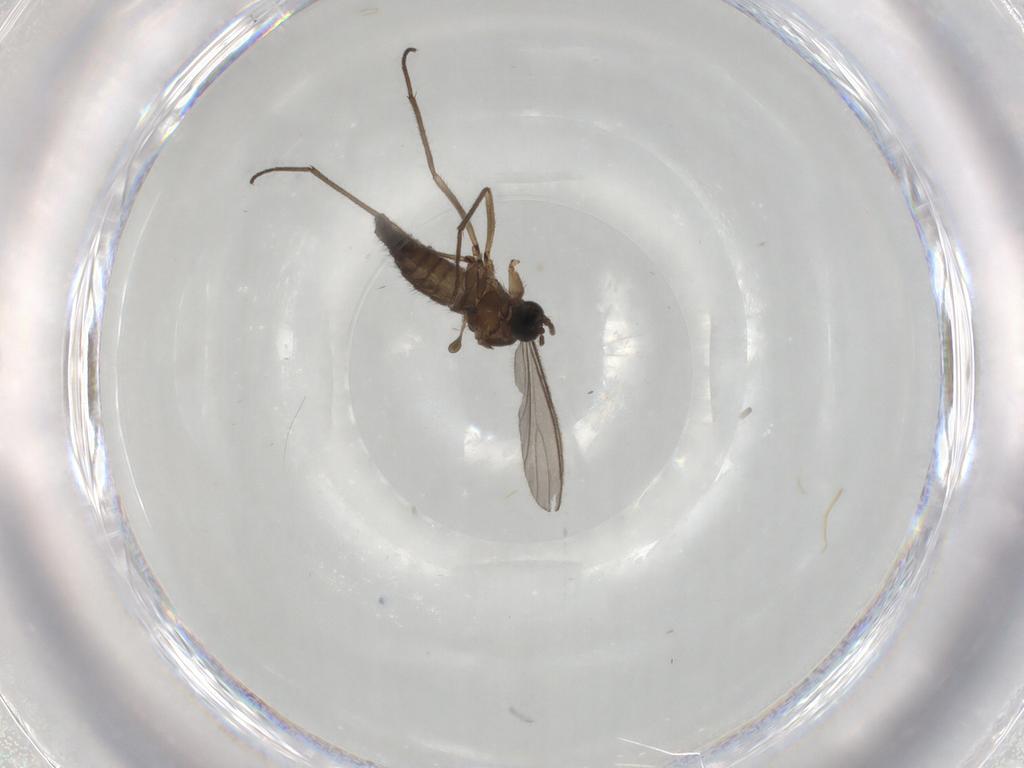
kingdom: Animalia
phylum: Arthropoda
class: Insecta
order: Diptera
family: Sciaridae
